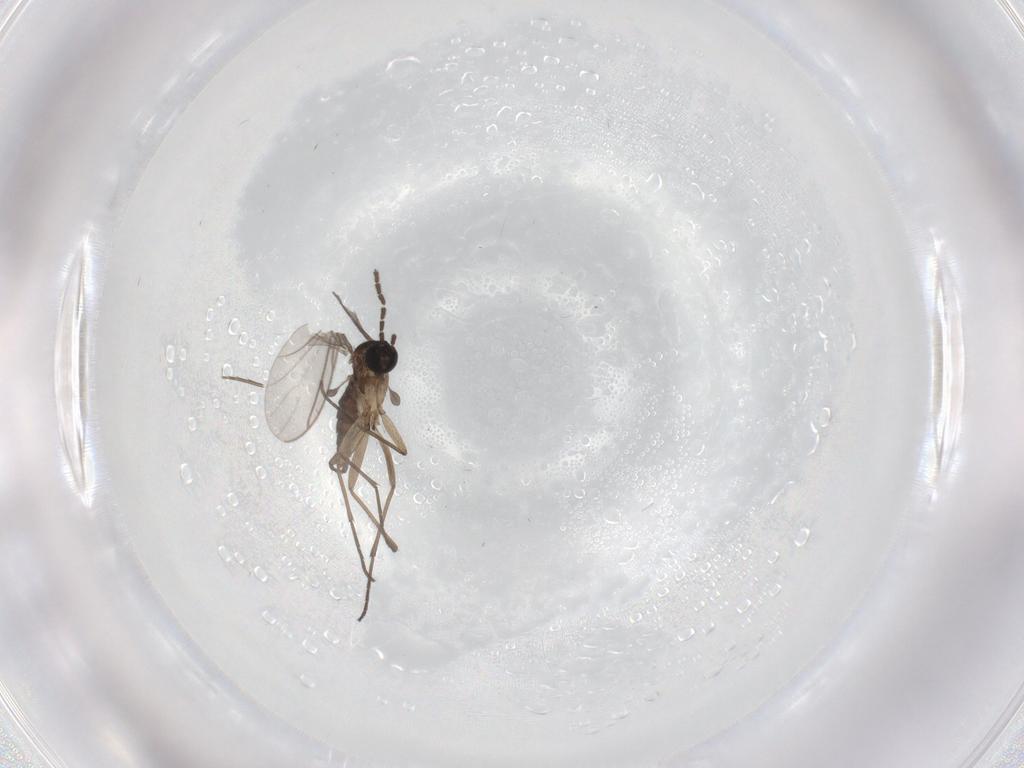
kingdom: Animalia
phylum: Arthropoda
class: Insecta
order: Diptera
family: Sciaridae
